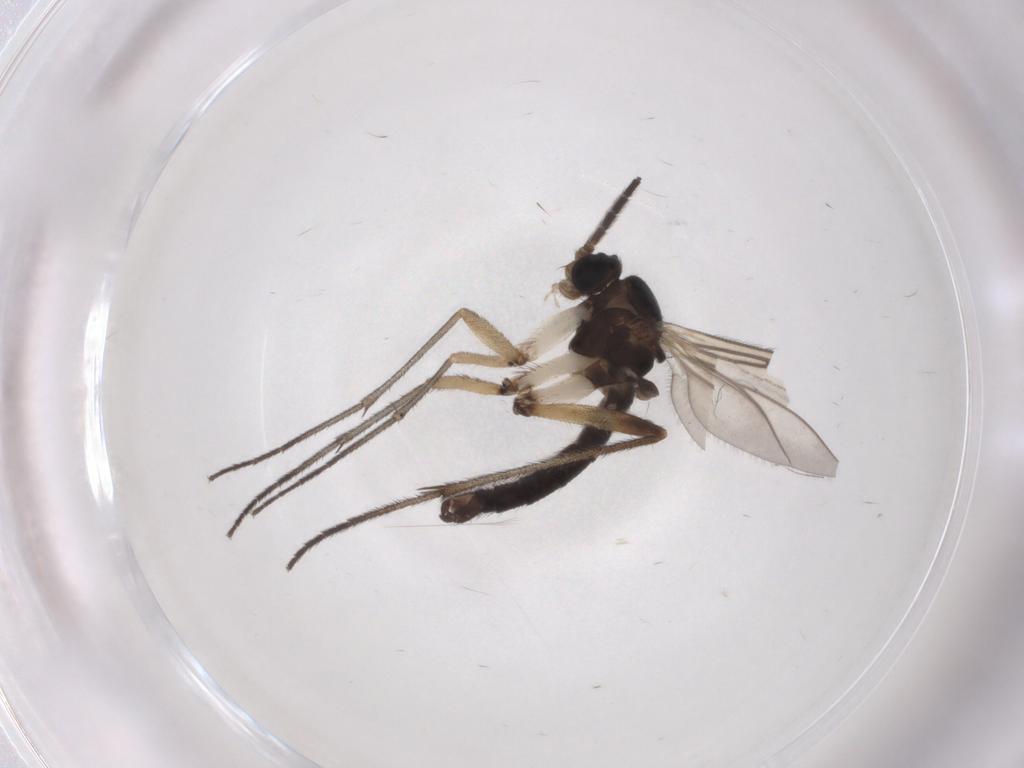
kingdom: Animalia
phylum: Arthropoda
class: Insecta
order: Diptera
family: Sciaridae
